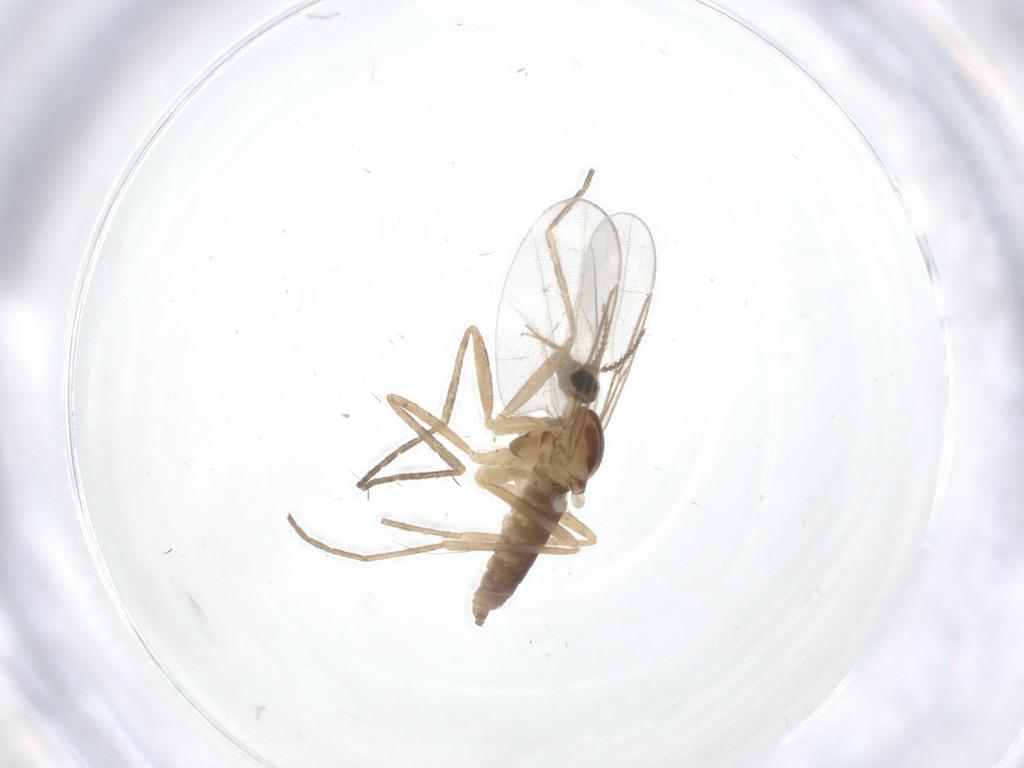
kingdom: Animalia
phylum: Arthropoda
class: Insecta
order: Diptera
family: Cecidomyiidae
